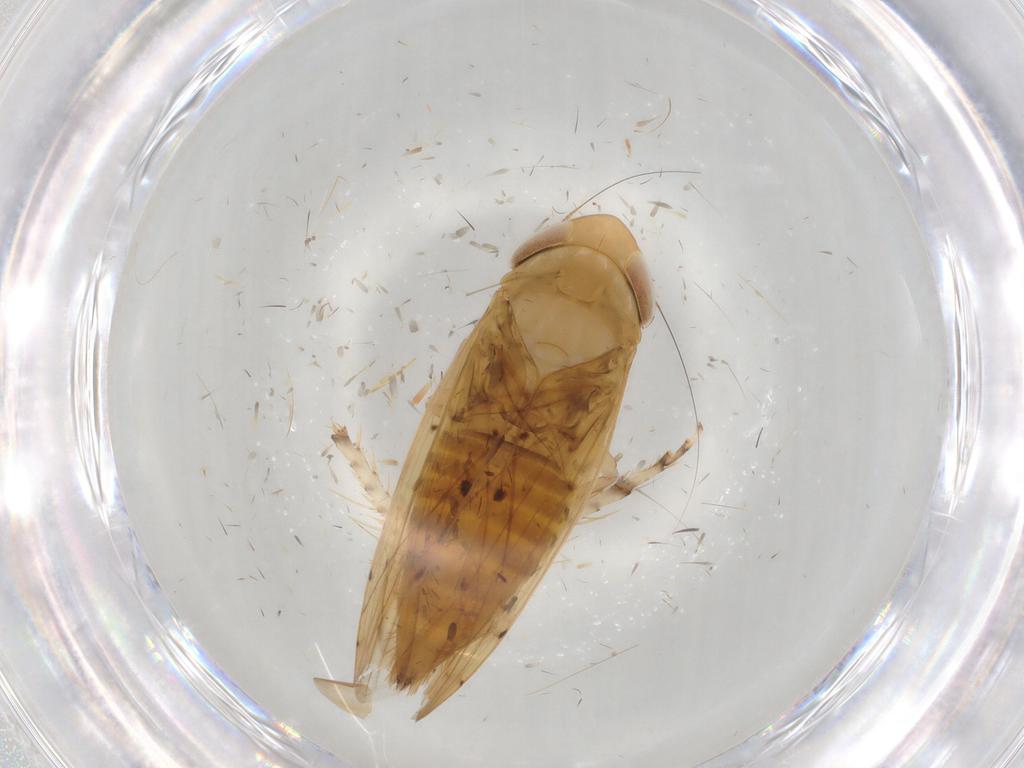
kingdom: Animalia
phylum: Arthropoda
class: Insecta
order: Hemiptera
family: Cicadellidae
